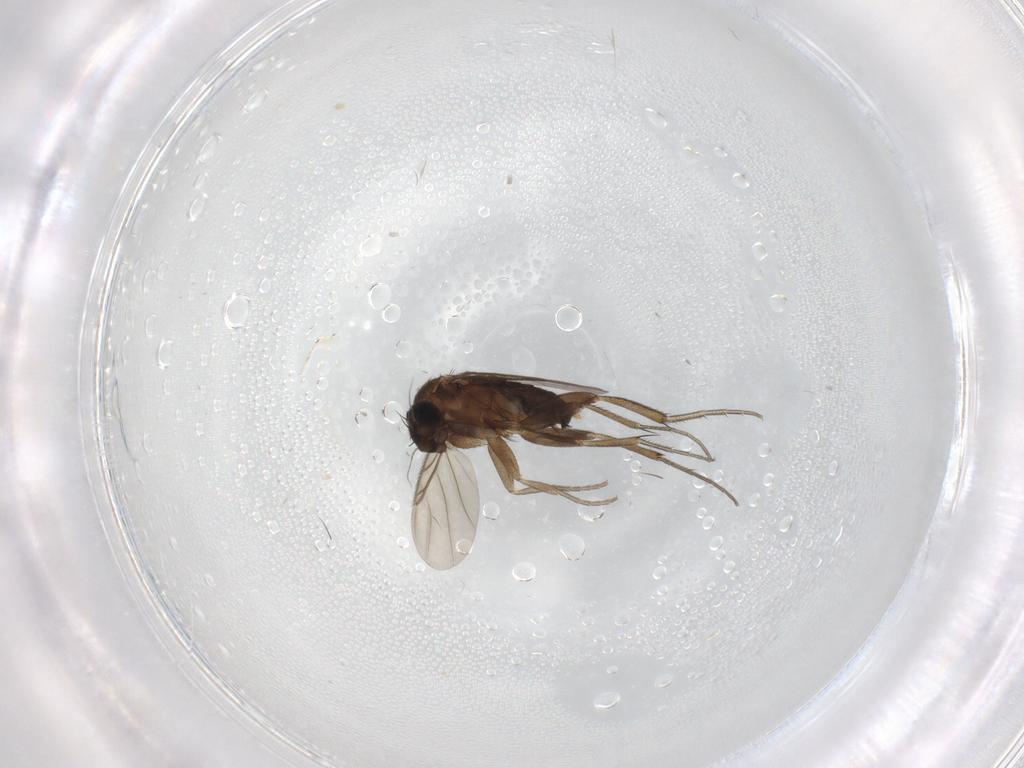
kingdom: Animalia
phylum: Arthropoda
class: Insecta
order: Diptera
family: Phoridae
